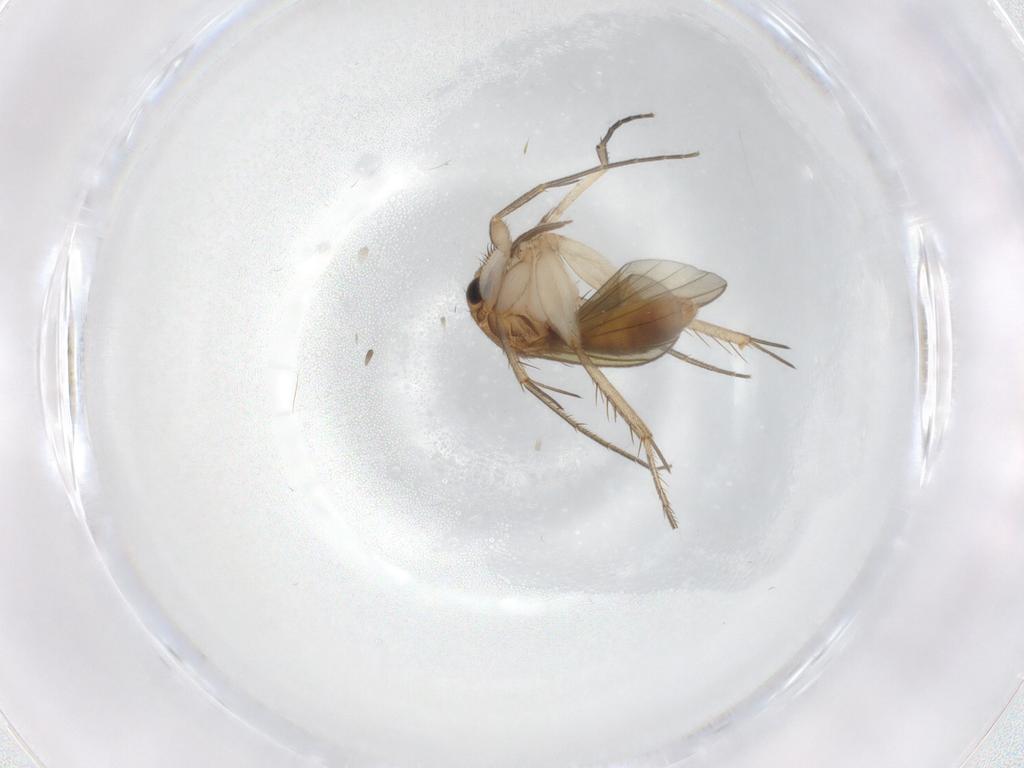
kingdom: Animalia
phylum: Arthropoda
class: Insecta
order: Diptera
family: Mycetophilidae
